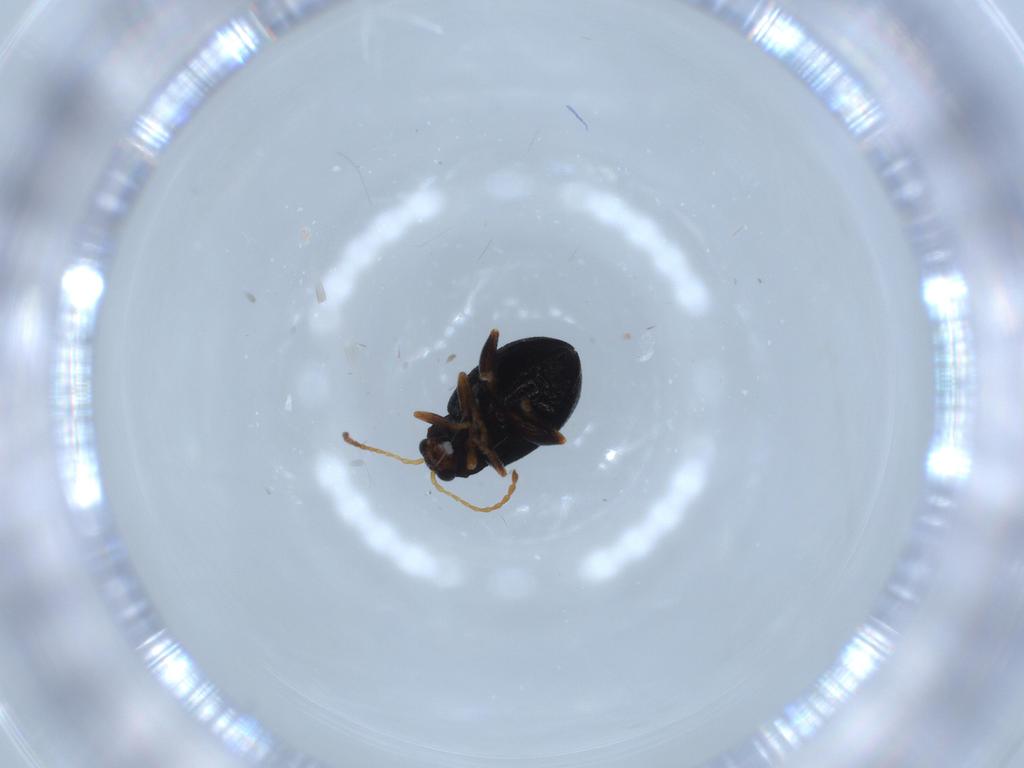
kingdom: Animalia
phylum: Arthropoda
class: Insecta
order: Coleoptera
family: Chrysomelidae
